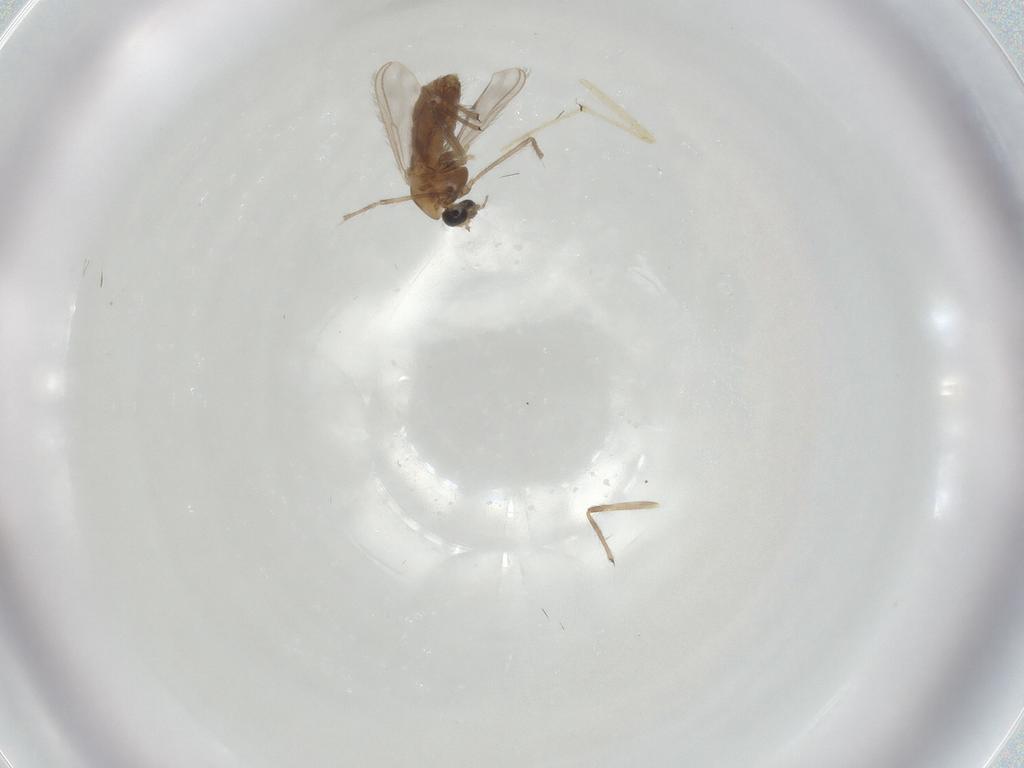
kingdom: Animalia
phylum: Arthropoda
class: Insecta
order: Diptera
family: Chironomidae
